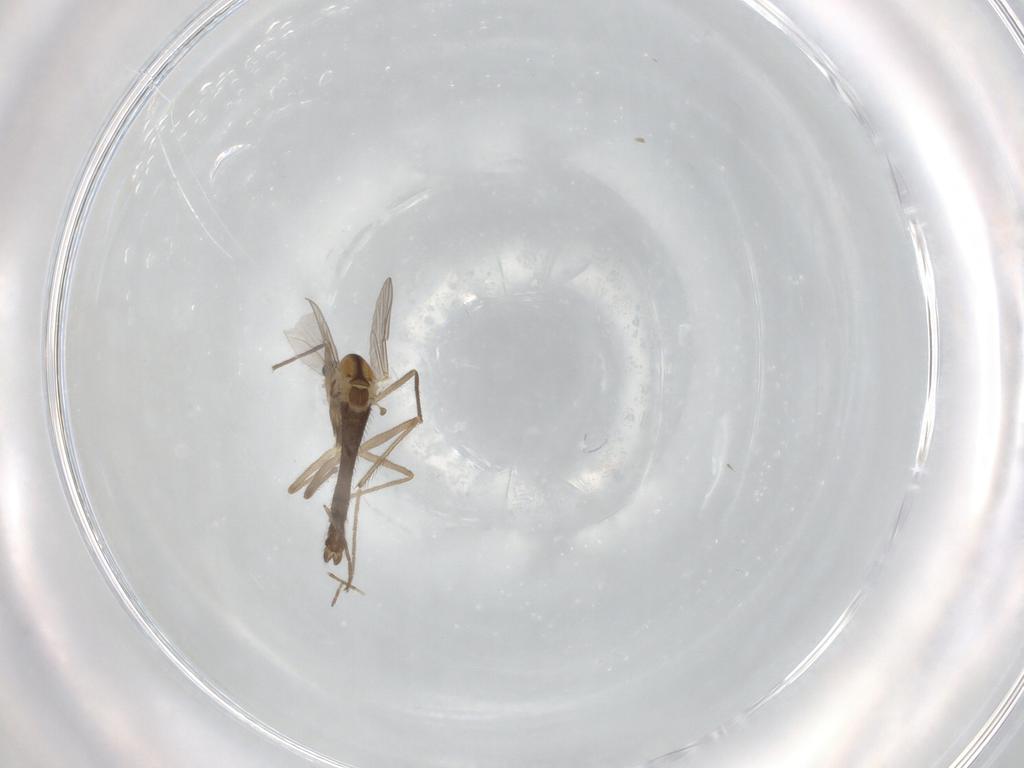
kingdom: Animalia
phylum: Arthropoda
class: Insecta
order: Diptera
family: Chironomidae
